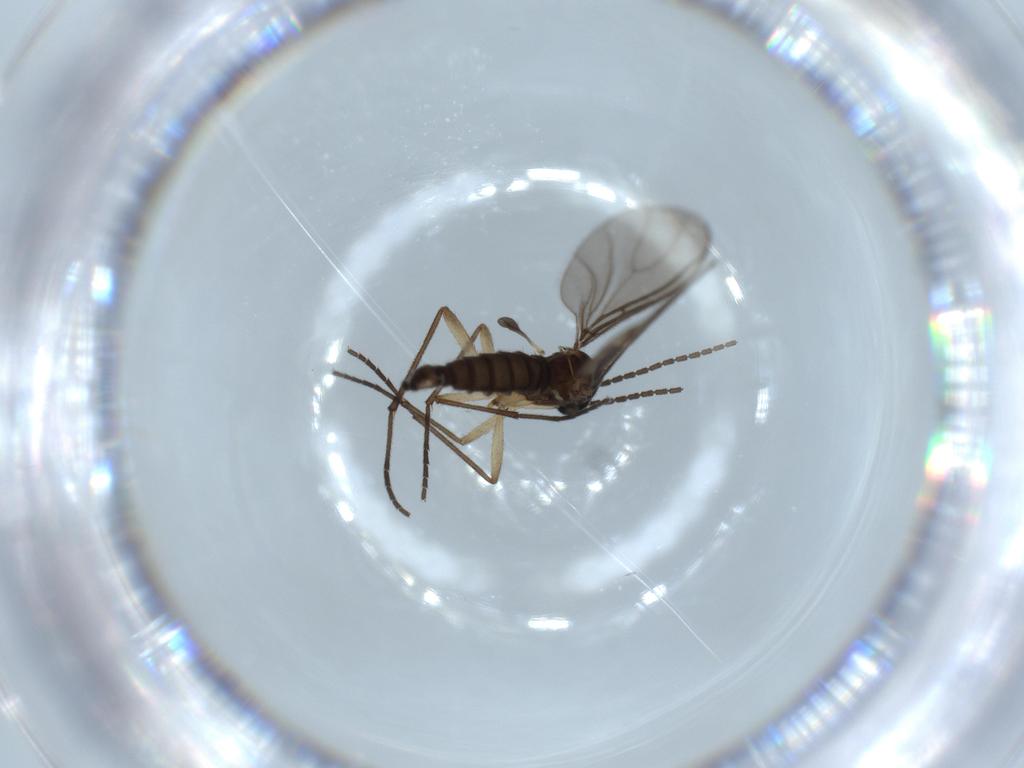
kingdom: Animalia
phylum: Arthropoda
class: Insecta
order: Diptera
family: Sciaridae
